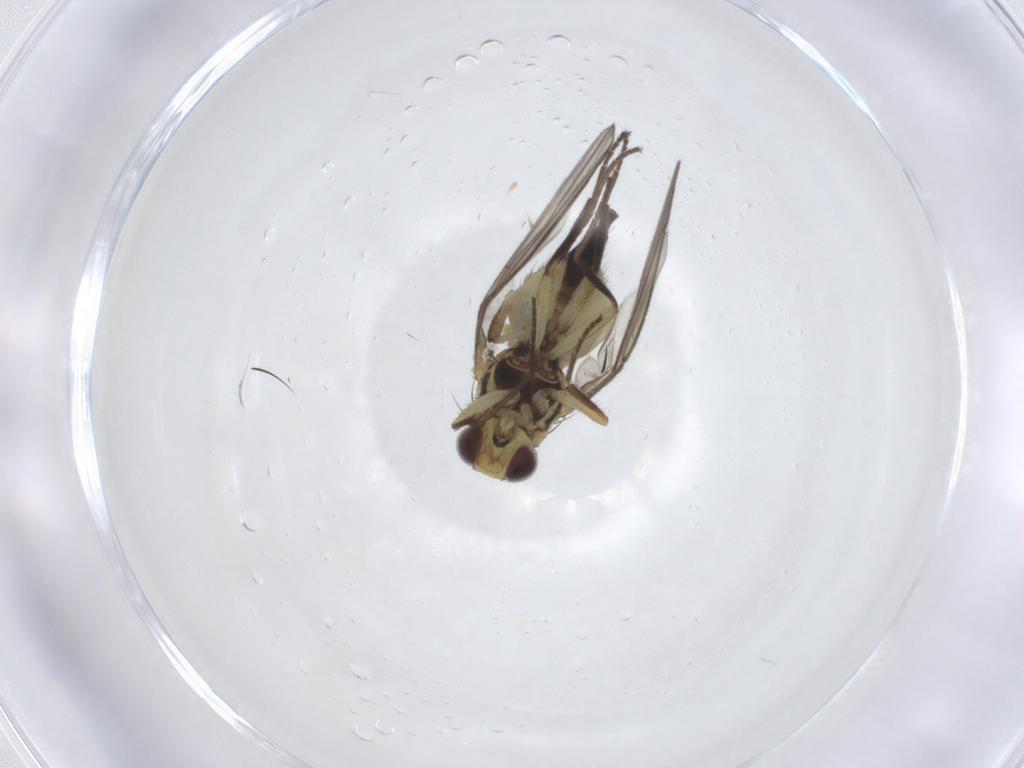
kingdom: Animalia
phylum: Arthropoda
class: Insecta
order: Diptera
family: Agromyzidae
